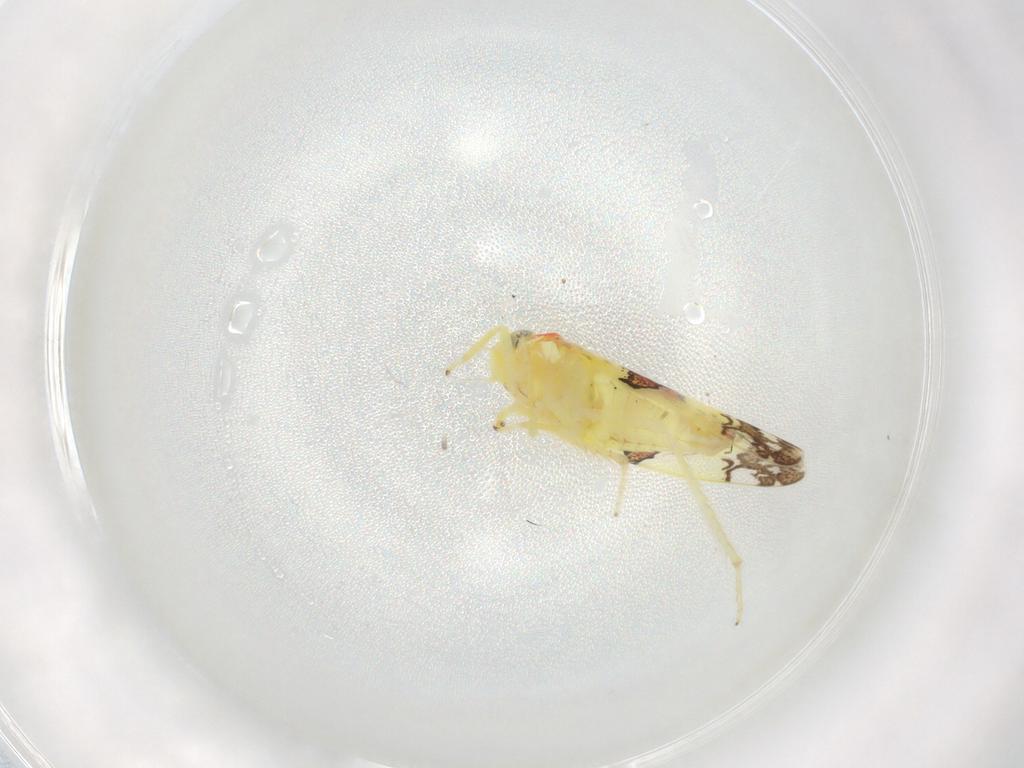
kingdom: Animalia
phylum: Arthropoda
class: Insecta
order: Hemiptera
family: Cicadellidae
